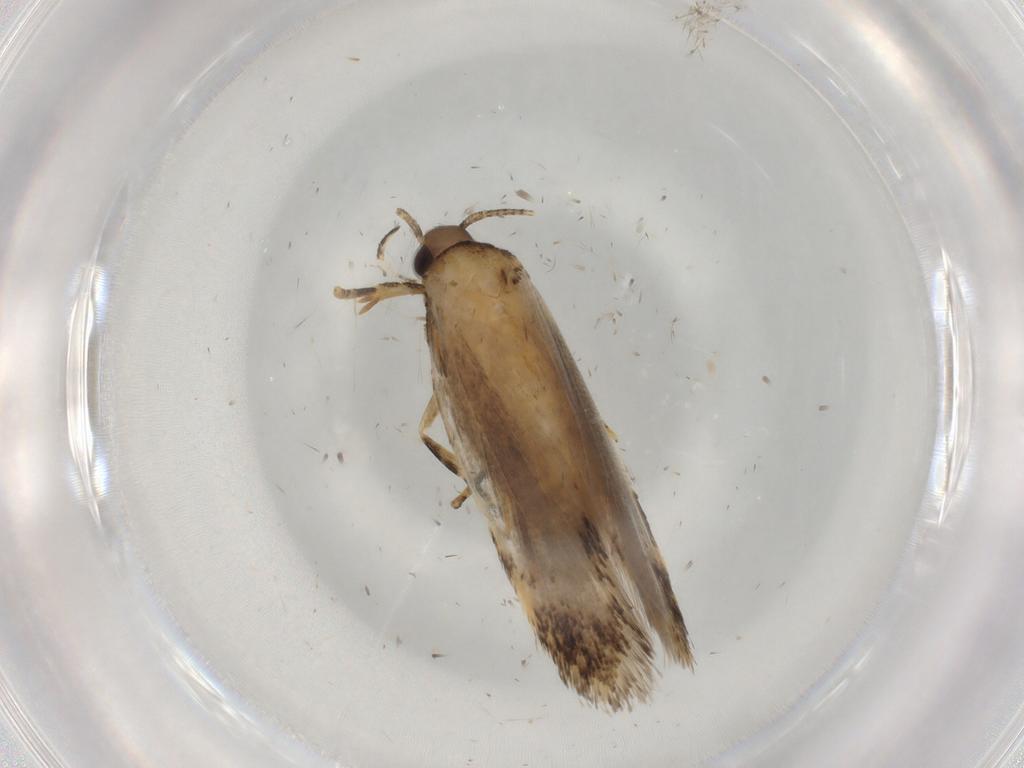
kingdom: Animalia
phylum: Arthropoda
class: Insecta
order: Lepidoptera
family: Autostichidae
